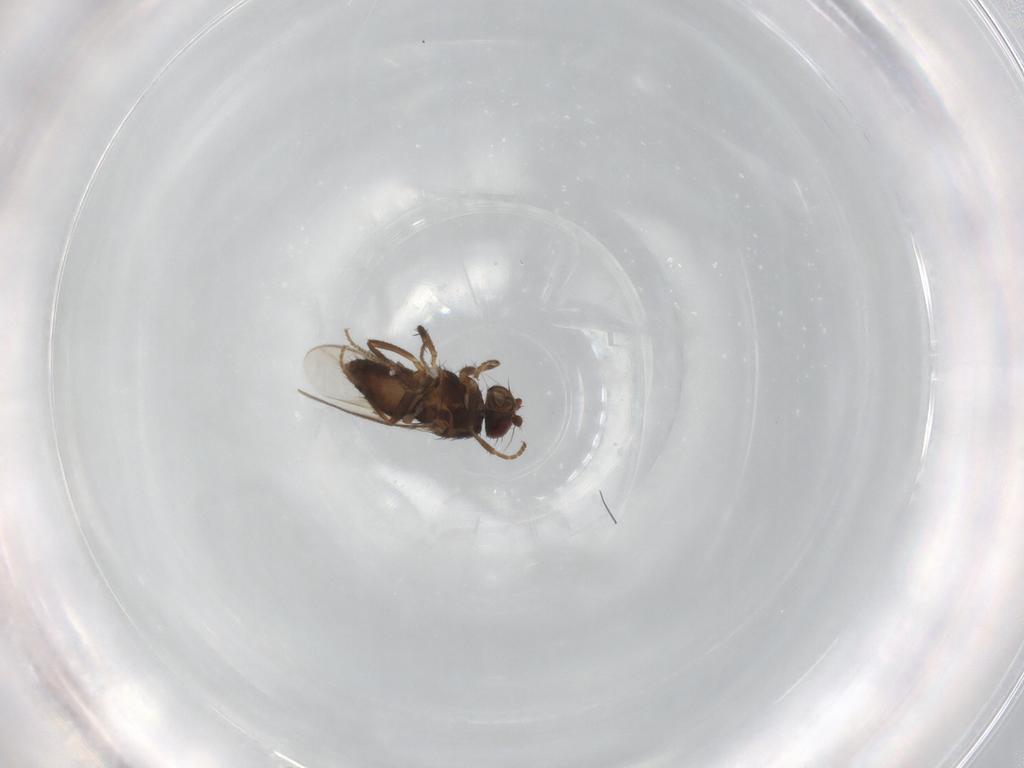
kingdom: Animalia
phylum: Arthropoda
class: Insecta
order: Diptera
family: Sphaeroceridae
